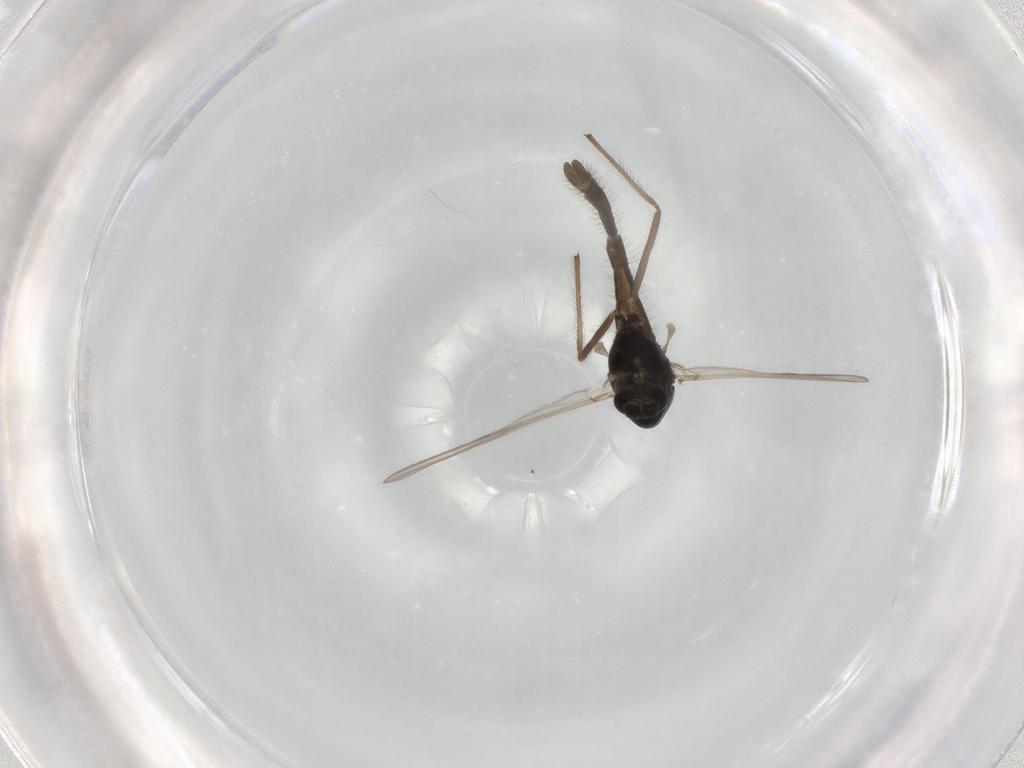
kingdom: Animalia
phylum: Arthropoda
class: Insecta
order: Diptera
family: Chironomidae
